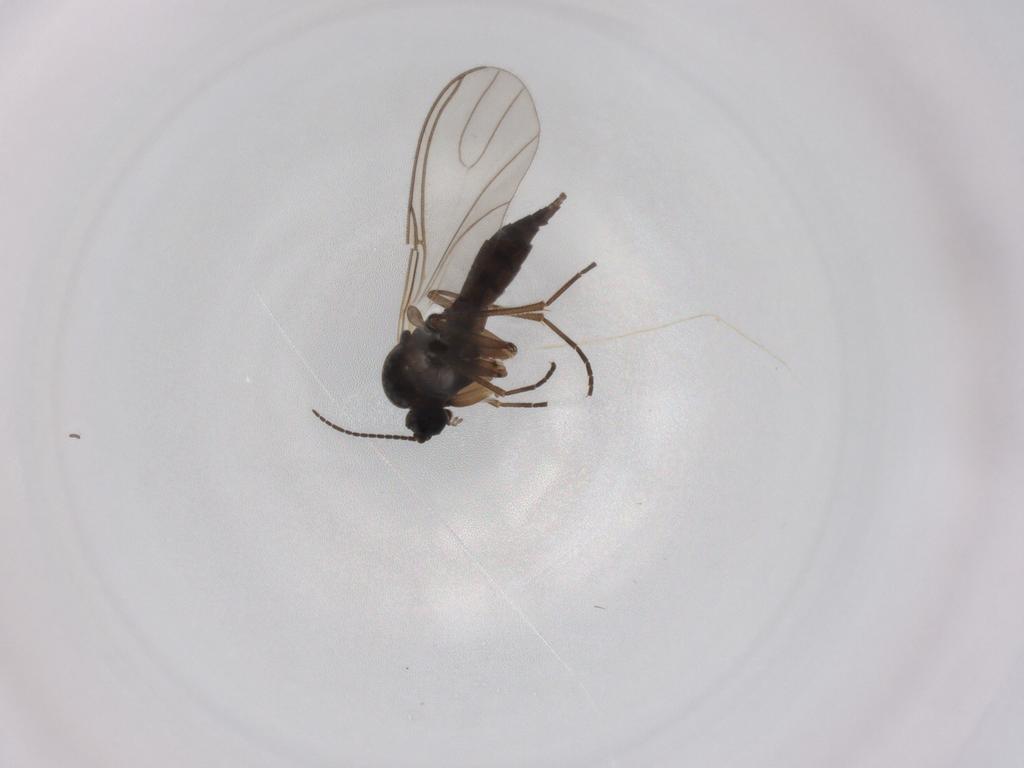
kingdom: Animalia
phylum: Arthropoda
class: Insecta
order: Diptera
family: Chironomidae
